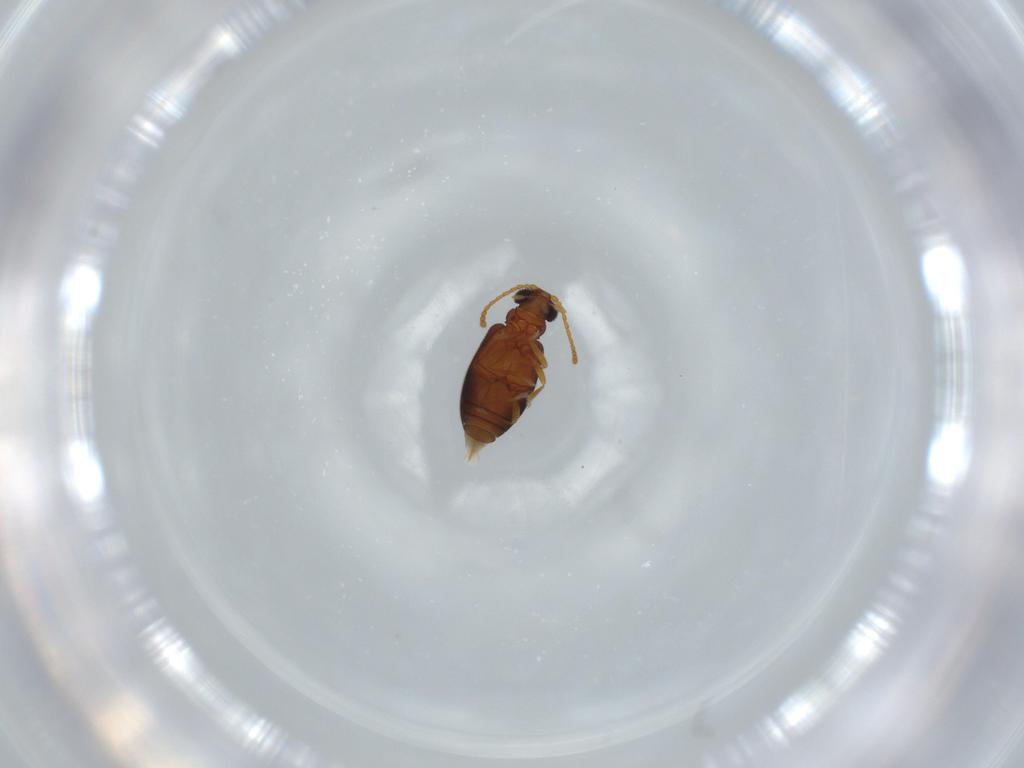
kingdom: Animalia
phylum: Arthropoda
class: Insecta
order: Coleoptera
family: Aderidae
